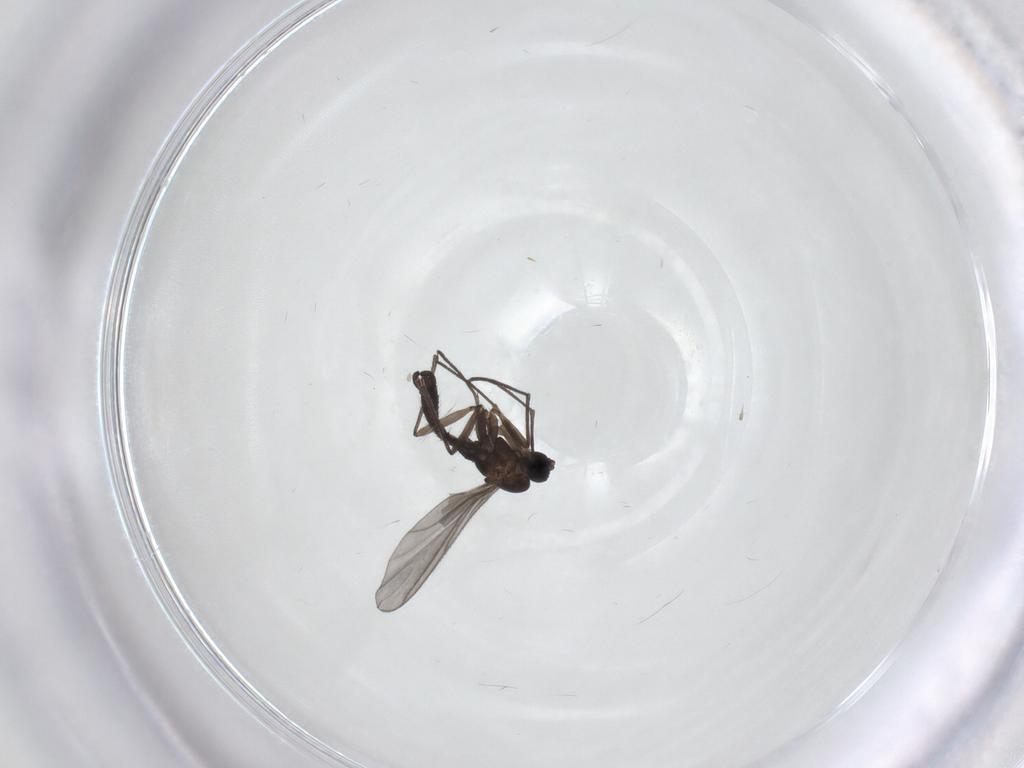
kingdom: Animalia
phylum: Arthropoda
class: Insecta
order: Diptera
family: Sciaridae
